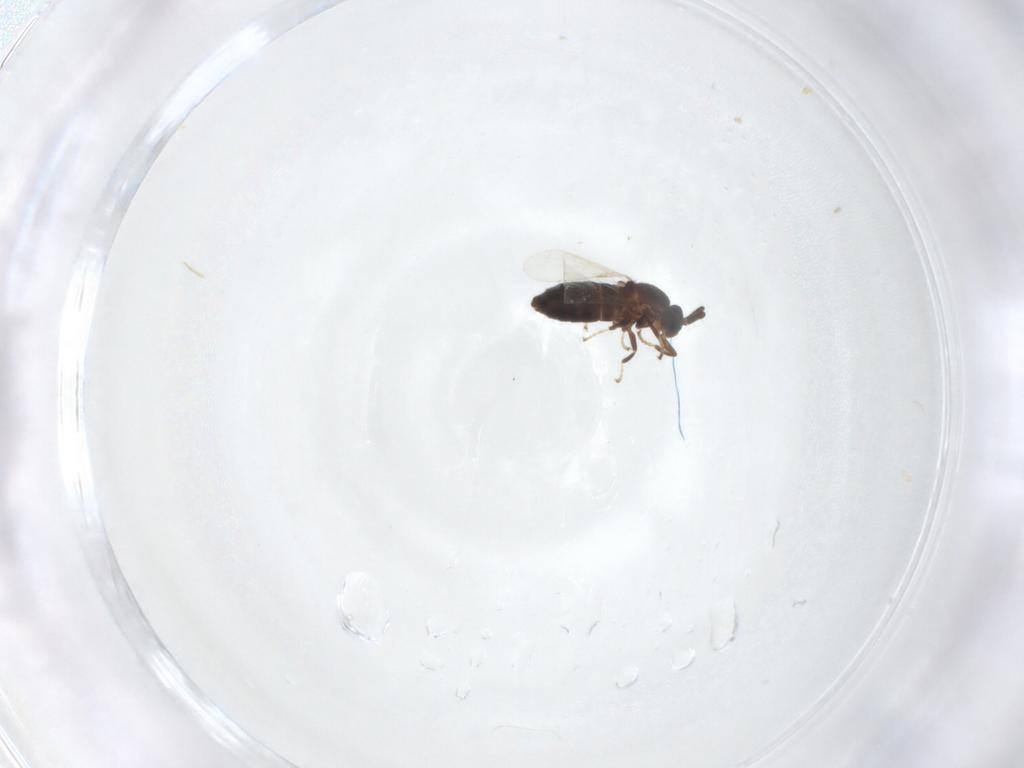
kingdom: Animalia
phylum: Arthropoda
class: Insecta
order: Diptera
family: Scatopsidae
